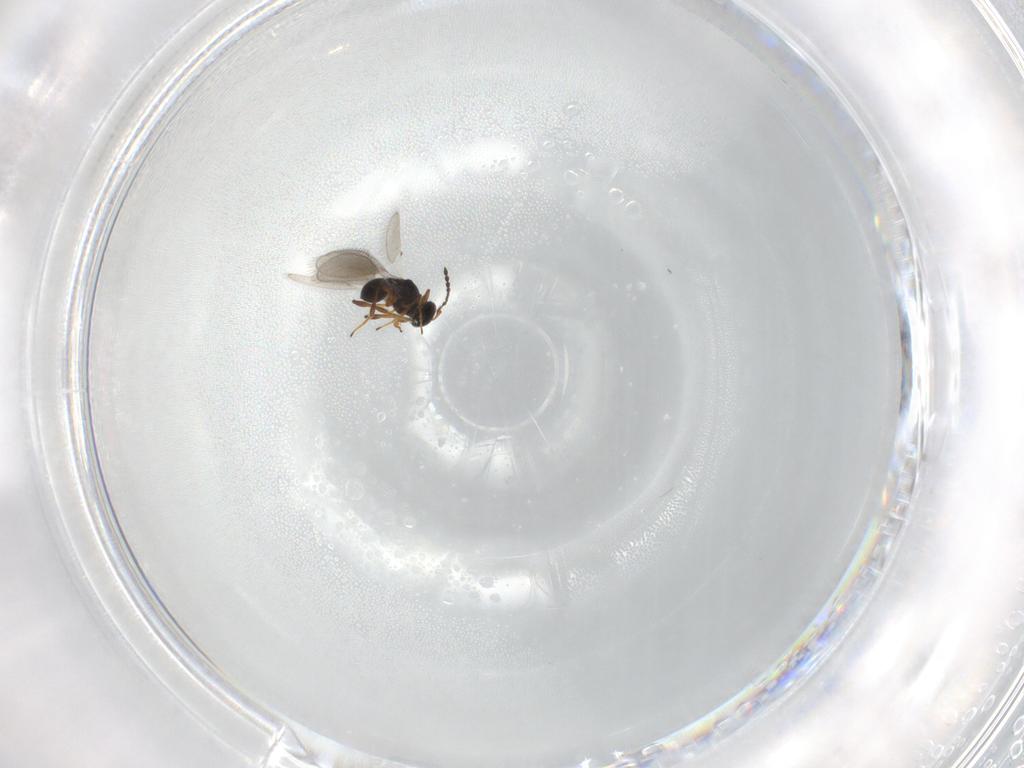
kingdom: Animalia
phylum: Arthropoda
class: Insecta
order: Hymenoptera
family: Platygastridae
